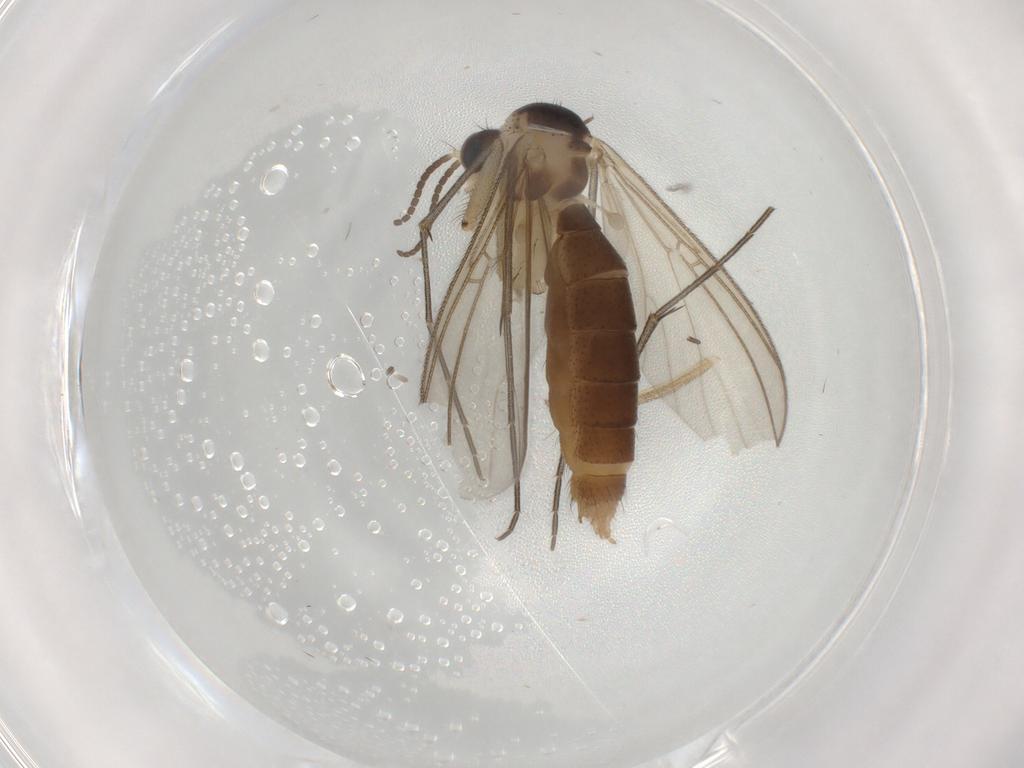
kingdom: Animalia
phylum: Arthropoda
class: Insecta
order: Diptera
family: Mycetophilidae
